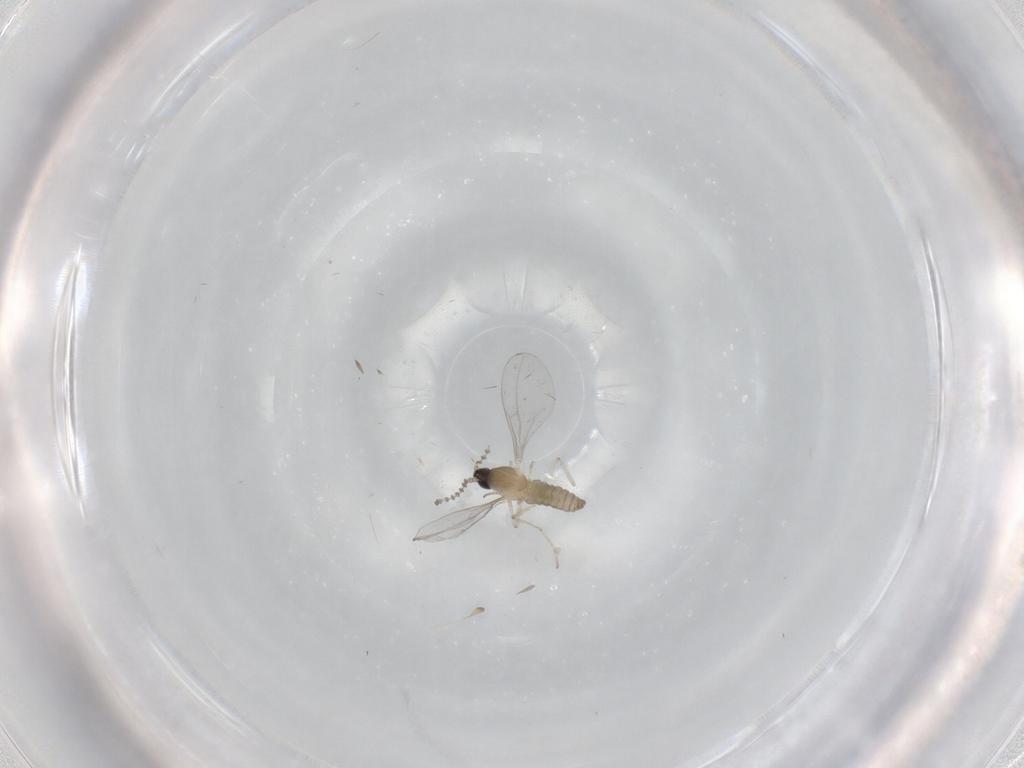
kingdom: Animalia
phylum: Arthropoda
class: Insecta
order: Diptera
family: Cecidomyiidae
